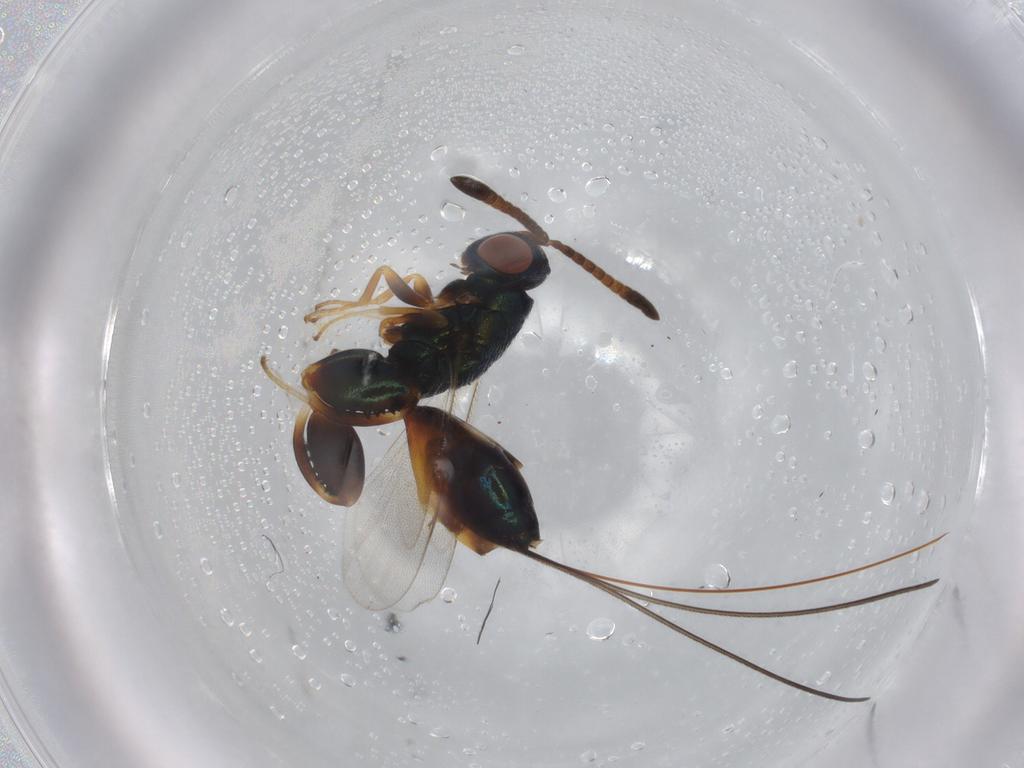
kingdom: Animalia
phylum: Arthropoda
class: Insecta
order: Hymenoptera
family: Torymidae
